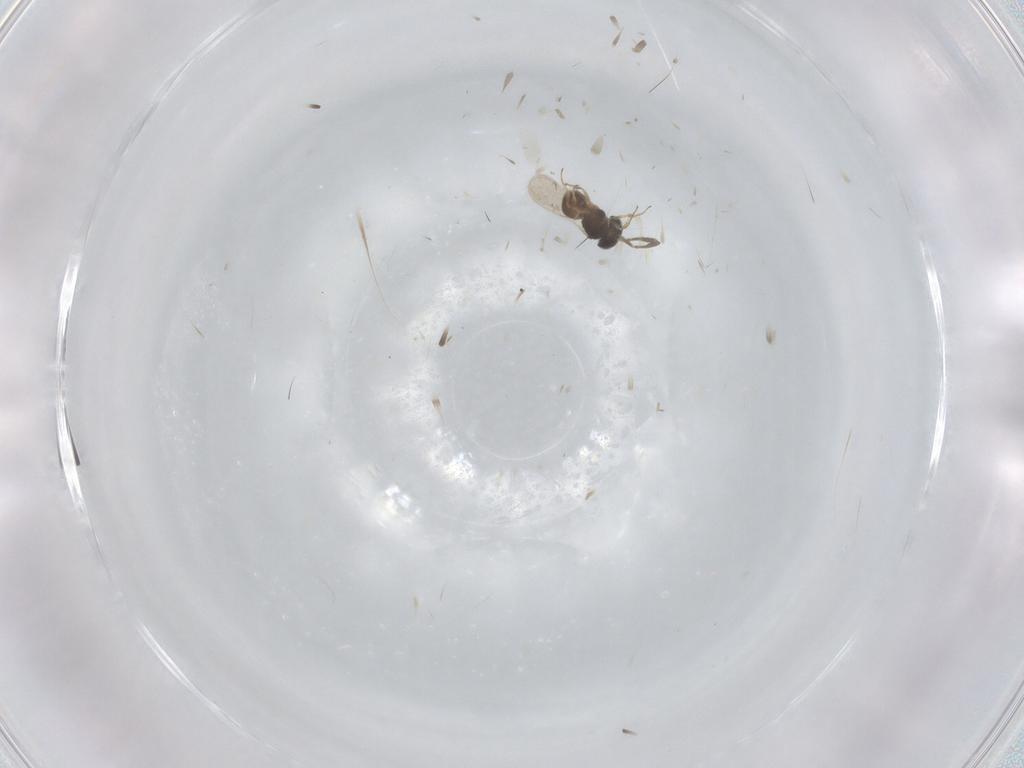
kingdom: Animalia
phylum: Arthropoda
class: Insecta
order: Hymenoptera
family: Scelionidae
